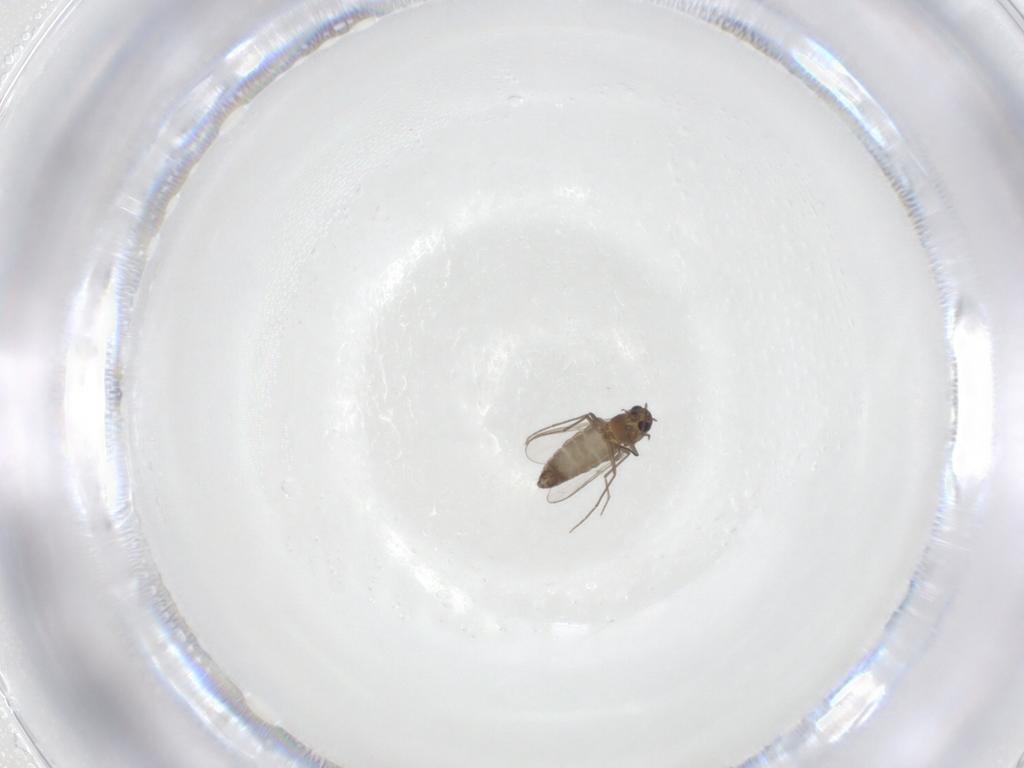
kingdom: Animalia
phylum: Arthropoda
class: Insecta
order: Diptera
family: Chironomidae
